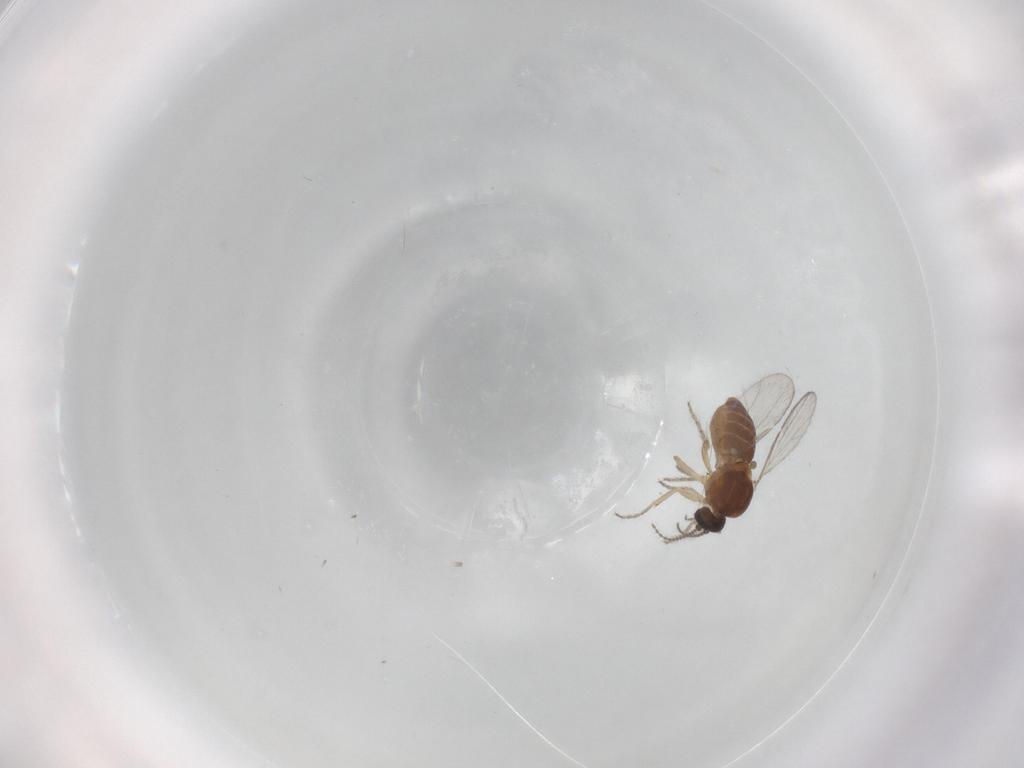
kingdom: Animalia
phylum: Arthropoda
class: Insecta
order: Diptera
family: Ceratopogonidae
